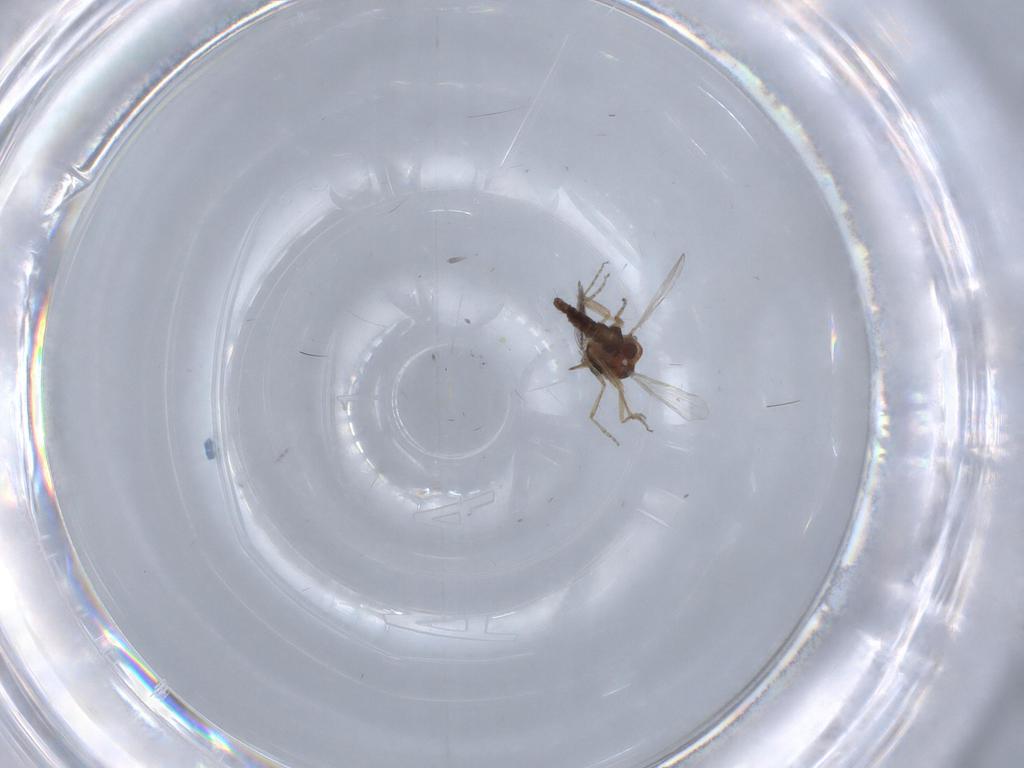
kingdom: Animalia
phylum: Arthropoda
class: Insecta
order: Diptera
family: Ceratopogonidae
